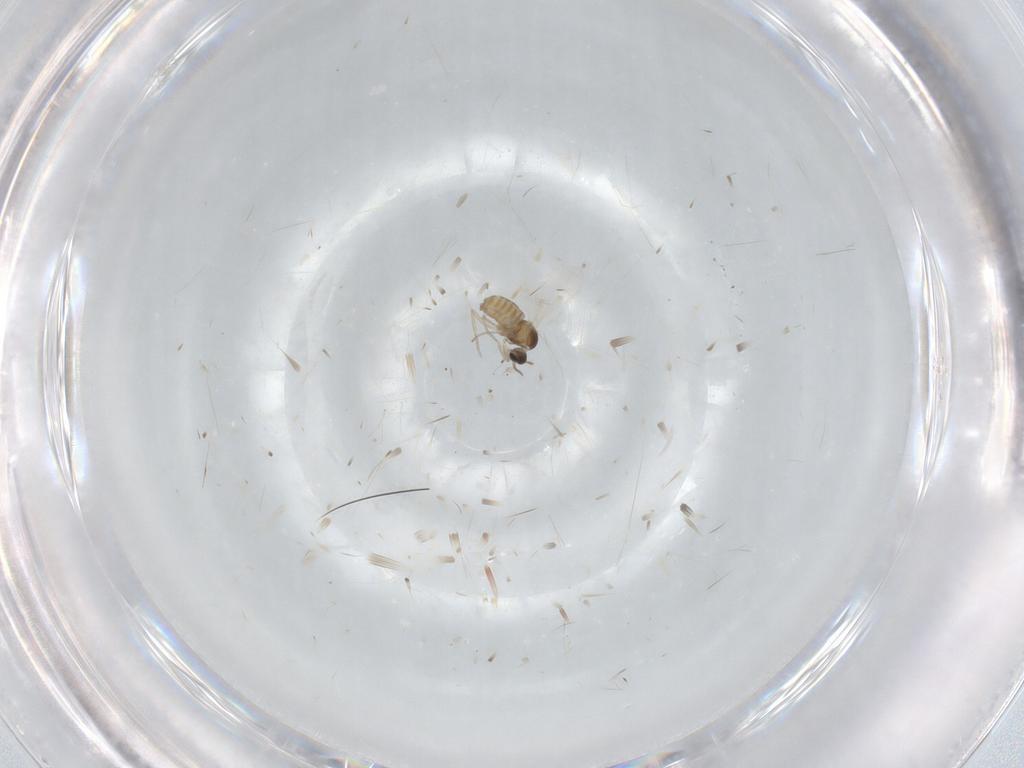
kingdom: Animalia
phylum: Arthropoda
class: Insecta
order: Diptera
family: Cecidomyiidae
